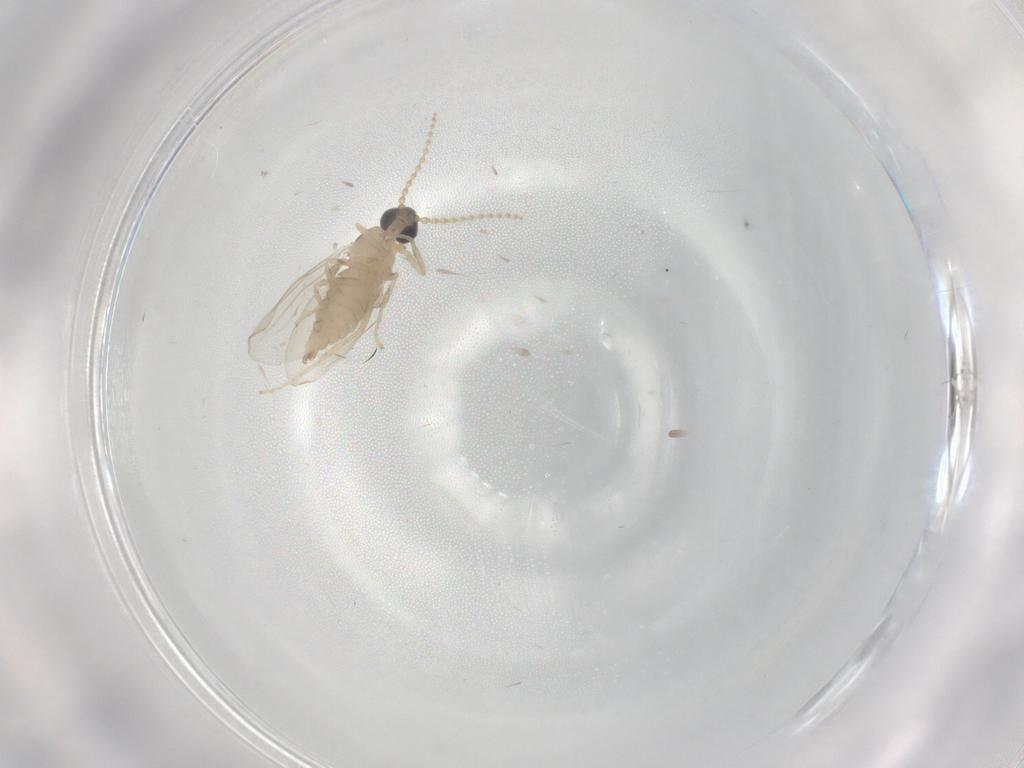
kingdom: Animalia
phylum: Arthropoda
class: Insecta
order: Diptera
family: Cecidomyiidae
